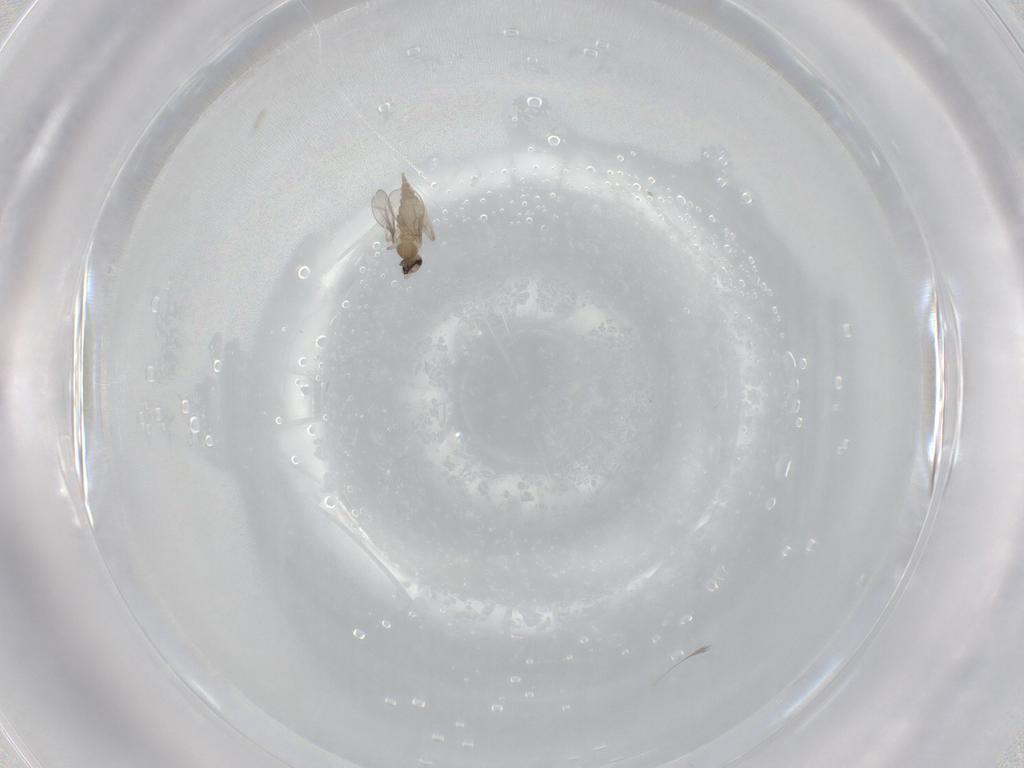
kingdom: Animalia
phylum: Arthropoda
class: Insecta
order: Diptera
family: Cecidomyiidae
